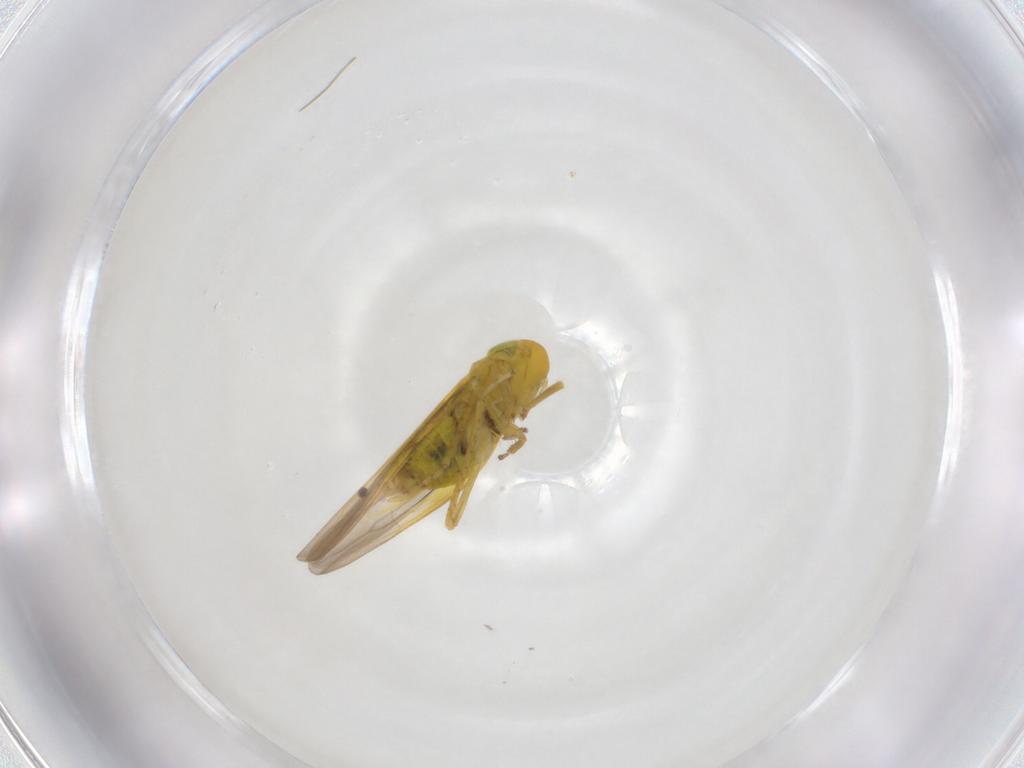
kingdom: Animalia
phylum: Arthropoda
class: Insecta
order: Hemiptera
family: Cicadellidae
